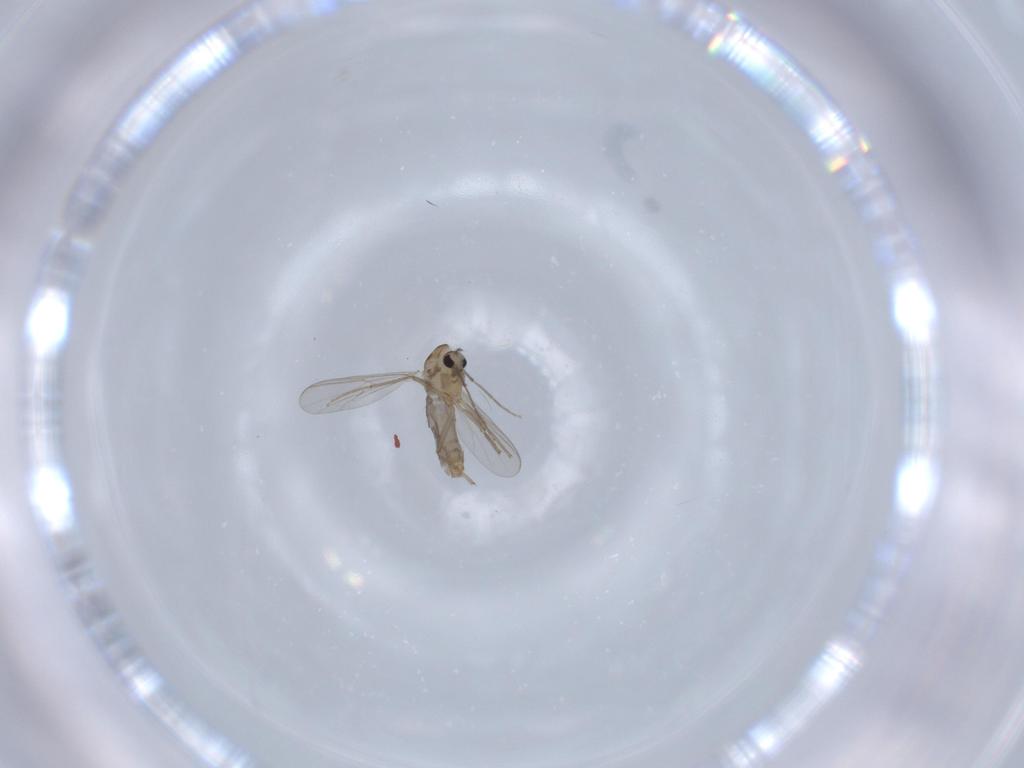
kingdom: Animalia
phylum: Arthropoda
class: Insecta
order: Diptera
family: Chironomidae
